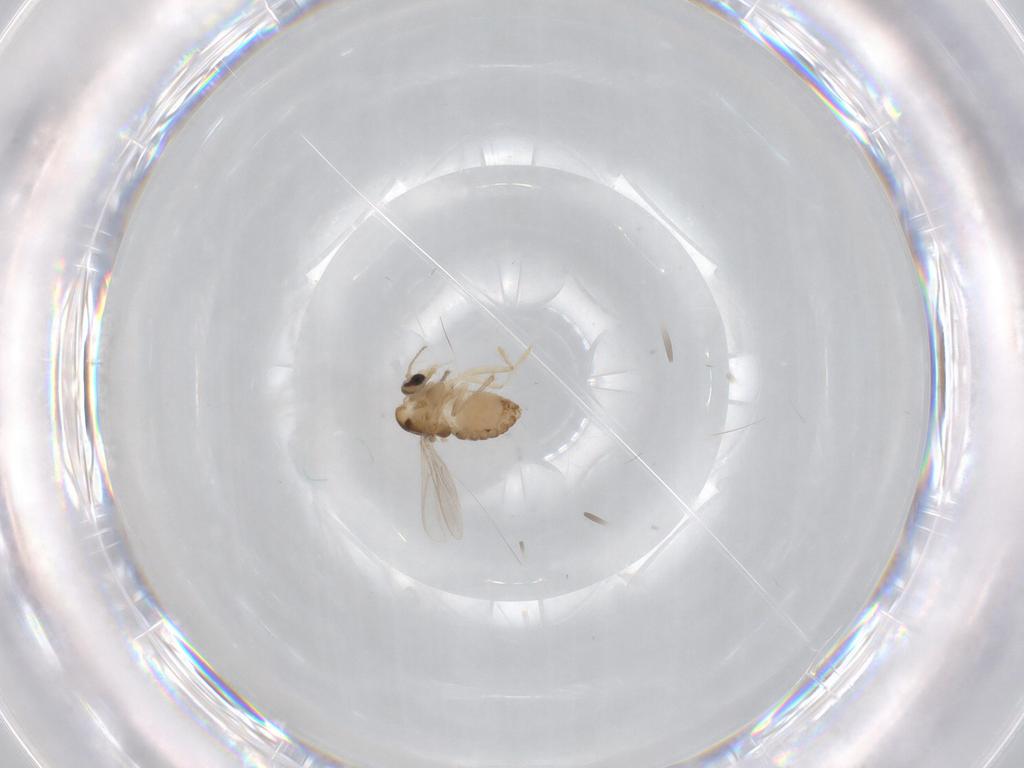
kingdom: Animalia
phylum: Arthropoda
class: Insecta
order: Diptera
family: Chironomidae
